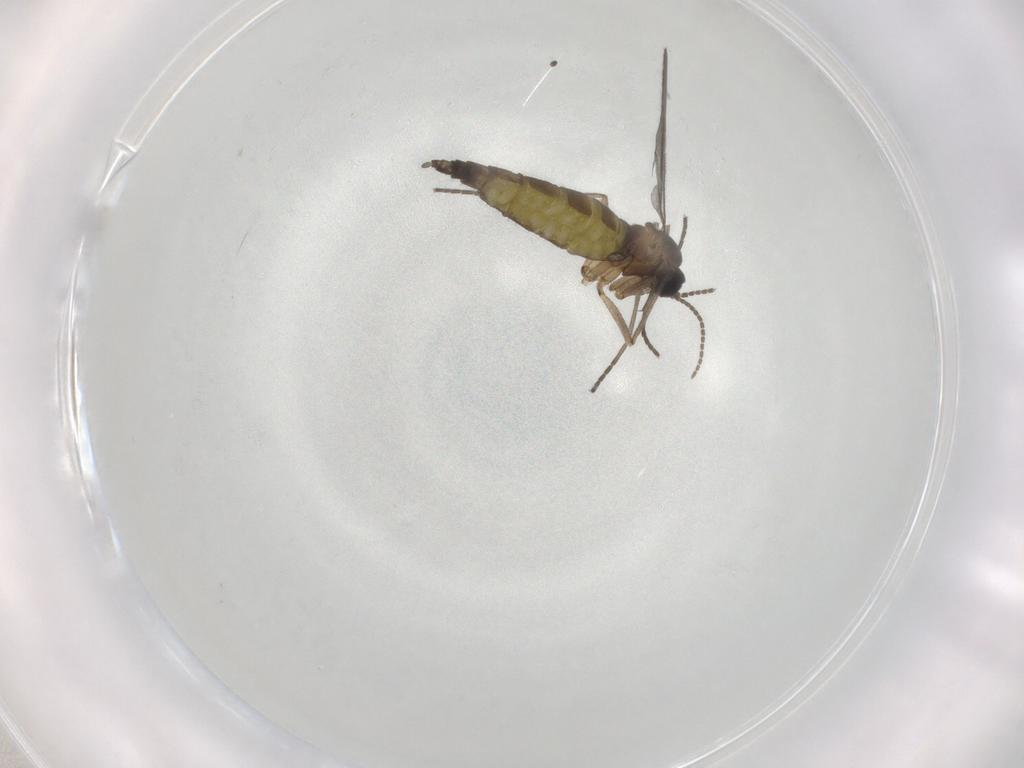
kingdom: Animalia
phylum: Arthropoda
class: Insecta
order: Diptera
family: Sciaridae
